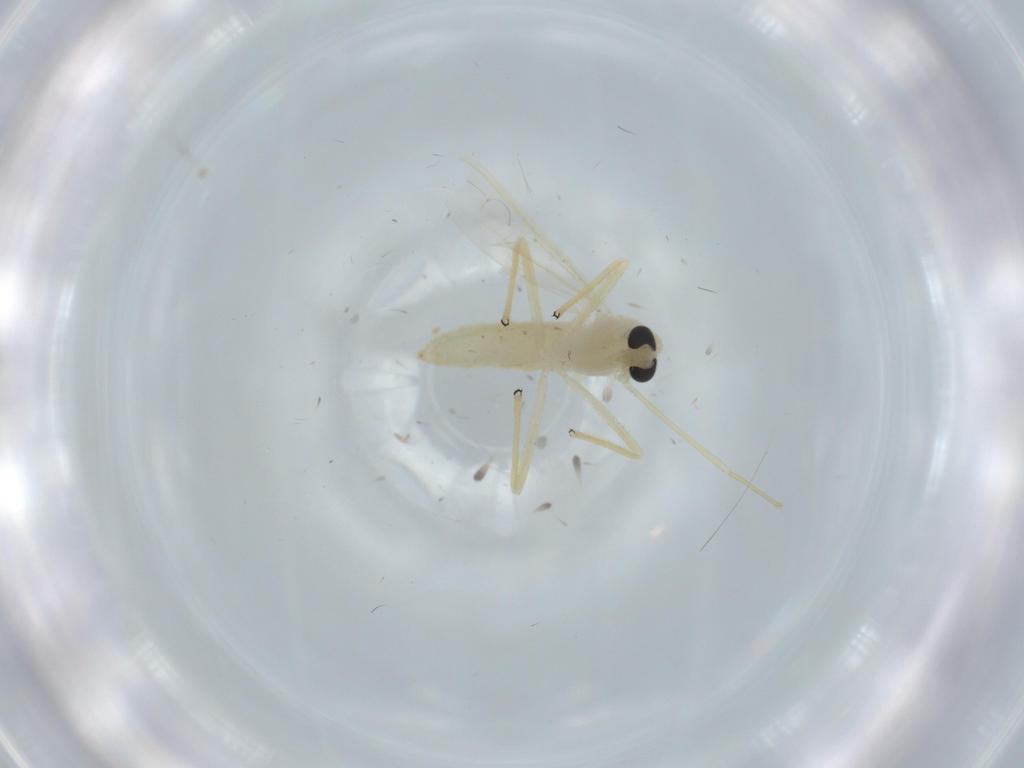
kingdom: Animalia
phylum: Arthropoda
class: Insecta
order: Diptera
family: Chironomidae
